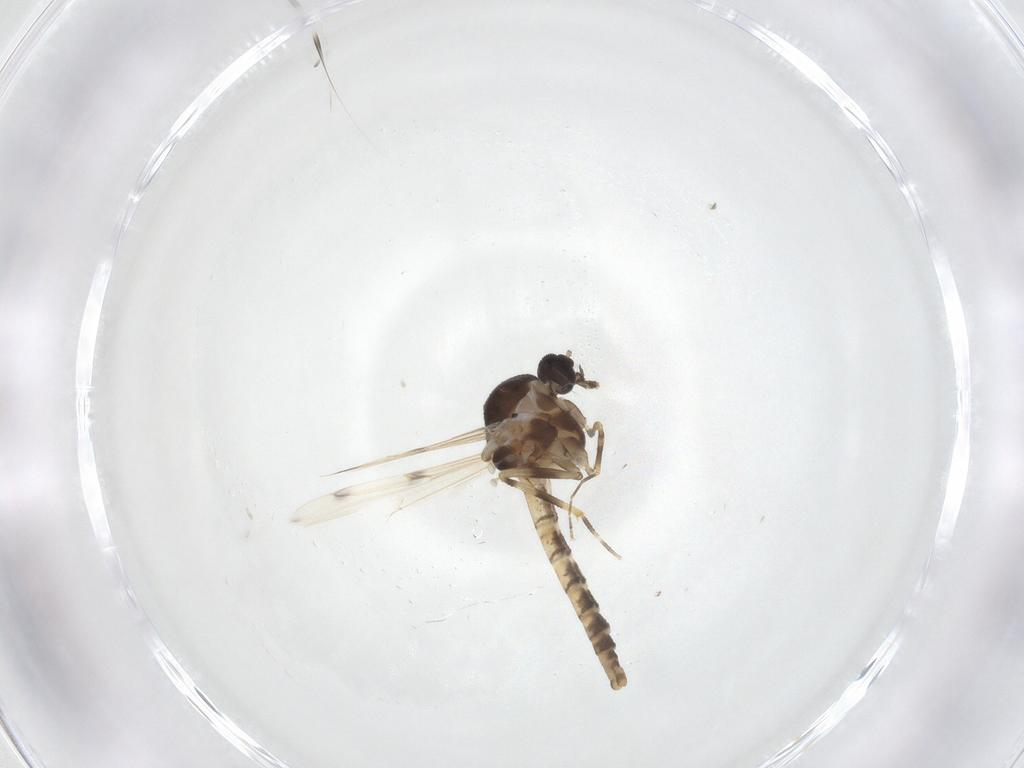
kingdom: Animalia
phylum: Arthropoda
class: Insecta
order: Diptera
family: Ceratopogonidae
